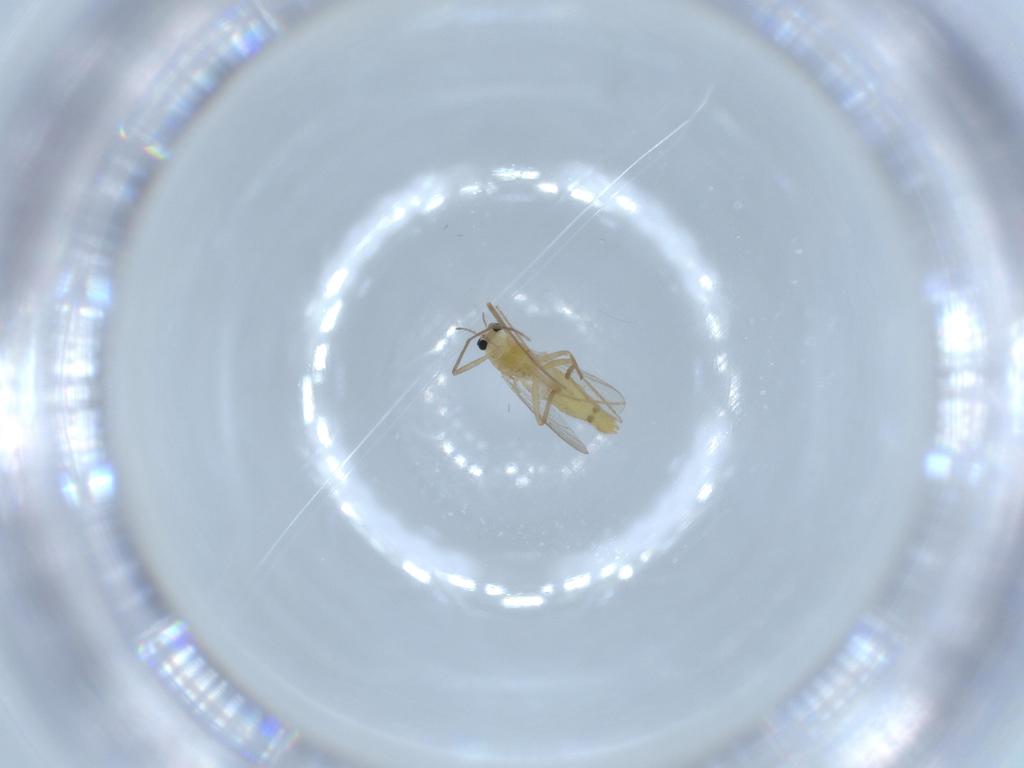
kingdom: Animalia
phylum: Arthropoda
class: Insecta
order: Diptera
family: Chironomidae
